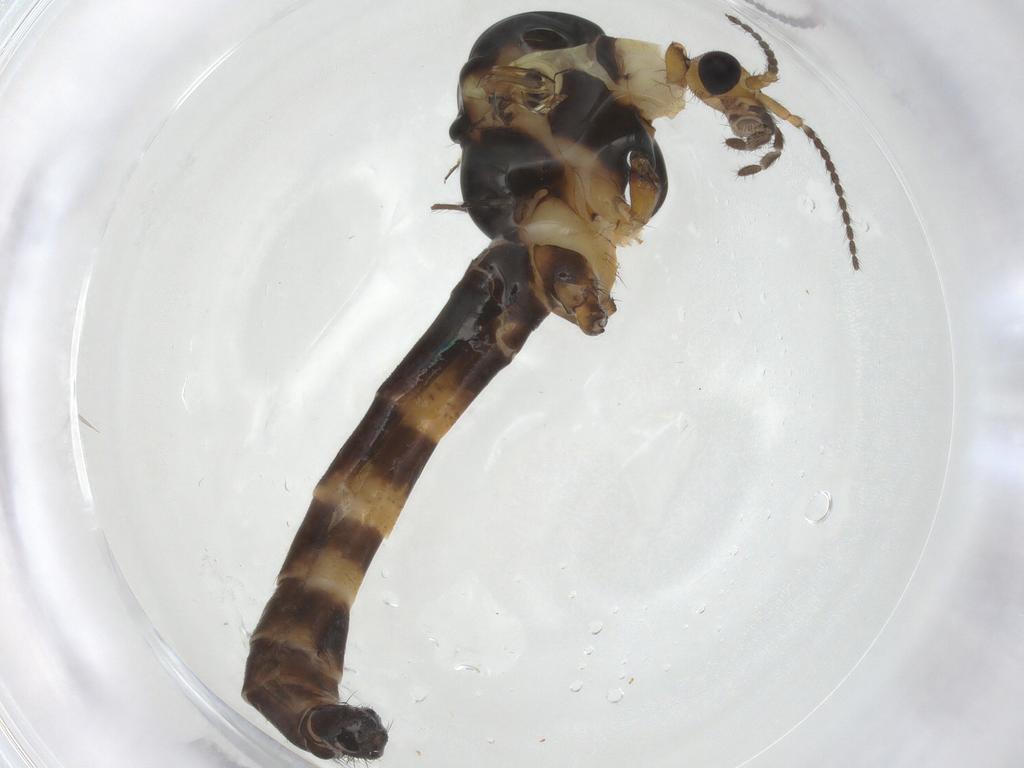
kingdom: Animalia
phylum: Arthropoda
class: Insecta
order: Diptera
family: Limoniidae
